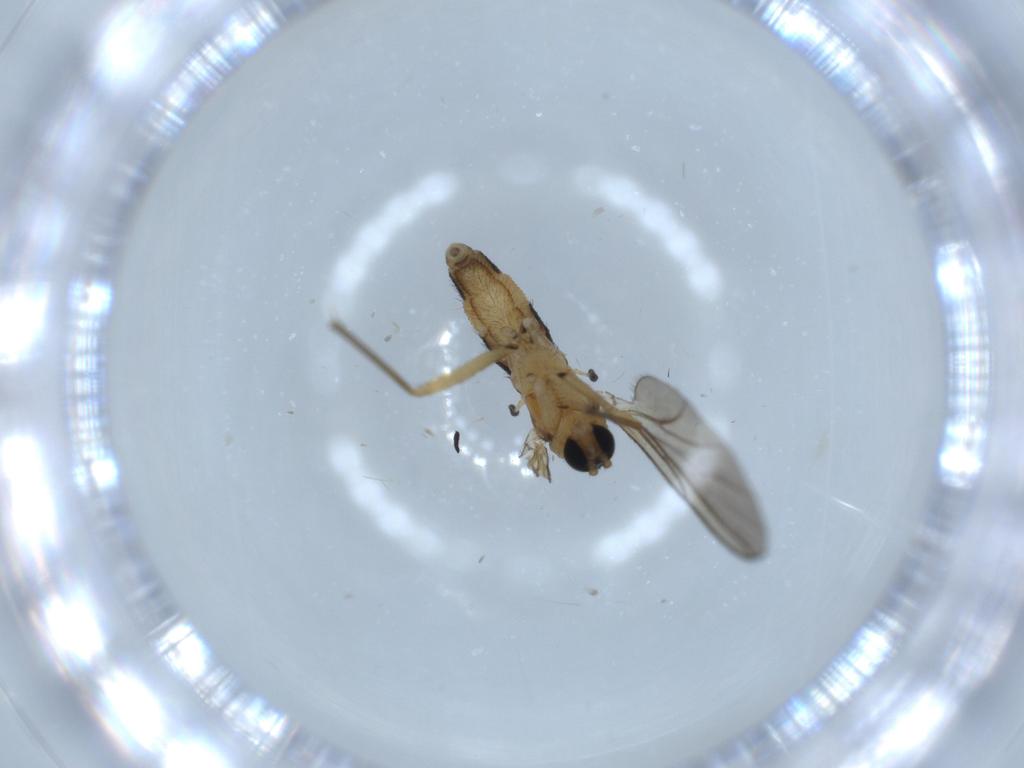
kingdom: Animalia
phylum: Arthropoda
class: Insecta
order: Diptera
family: Sciaridae
